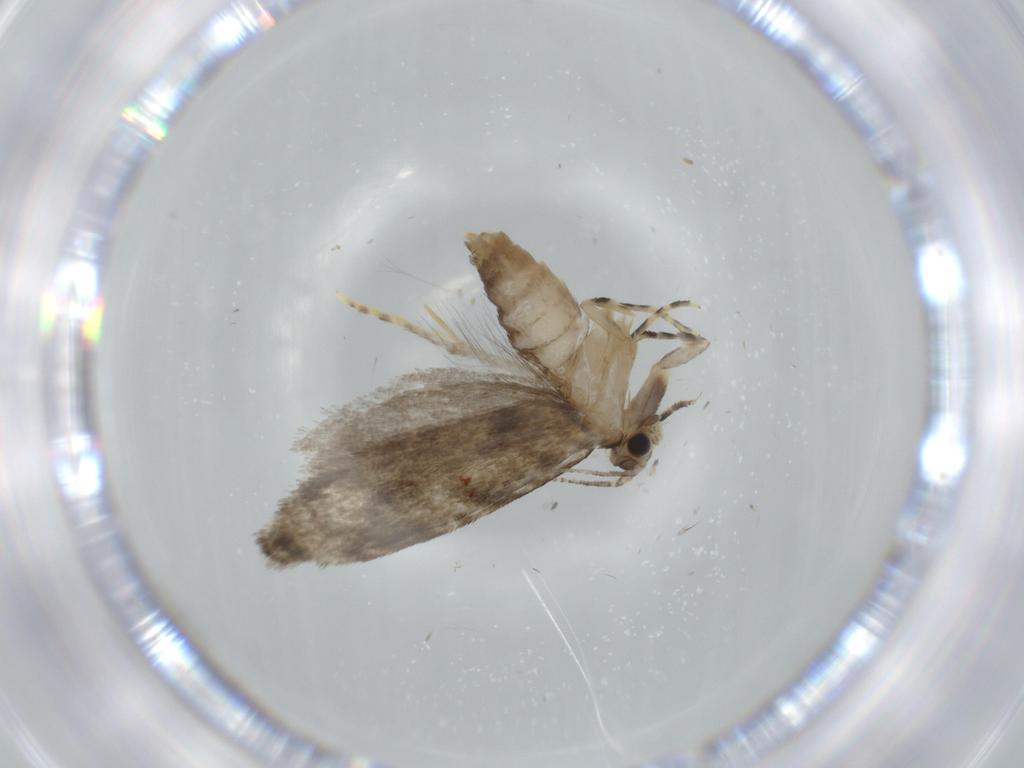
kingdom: Animalia
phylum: Arthropoda
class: Insecta
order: Lepidoptera
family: Tineidae
